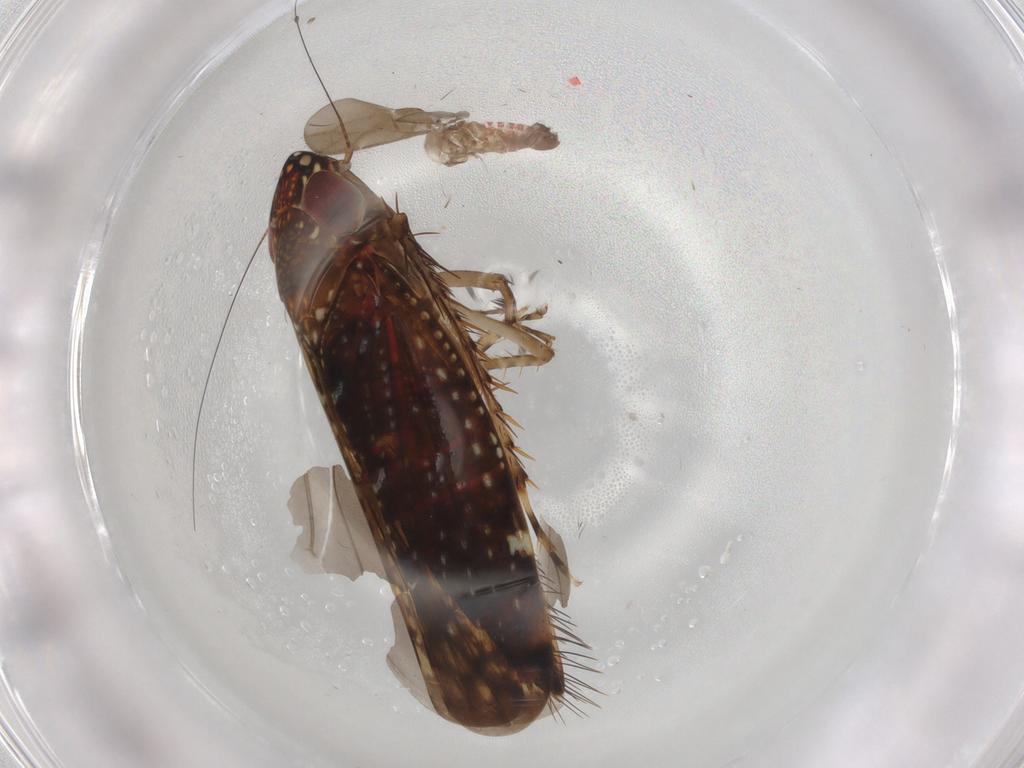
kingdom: Animalia
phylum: Arthropoda
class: Insecta
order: Hemiptera
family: Cicadellidae
